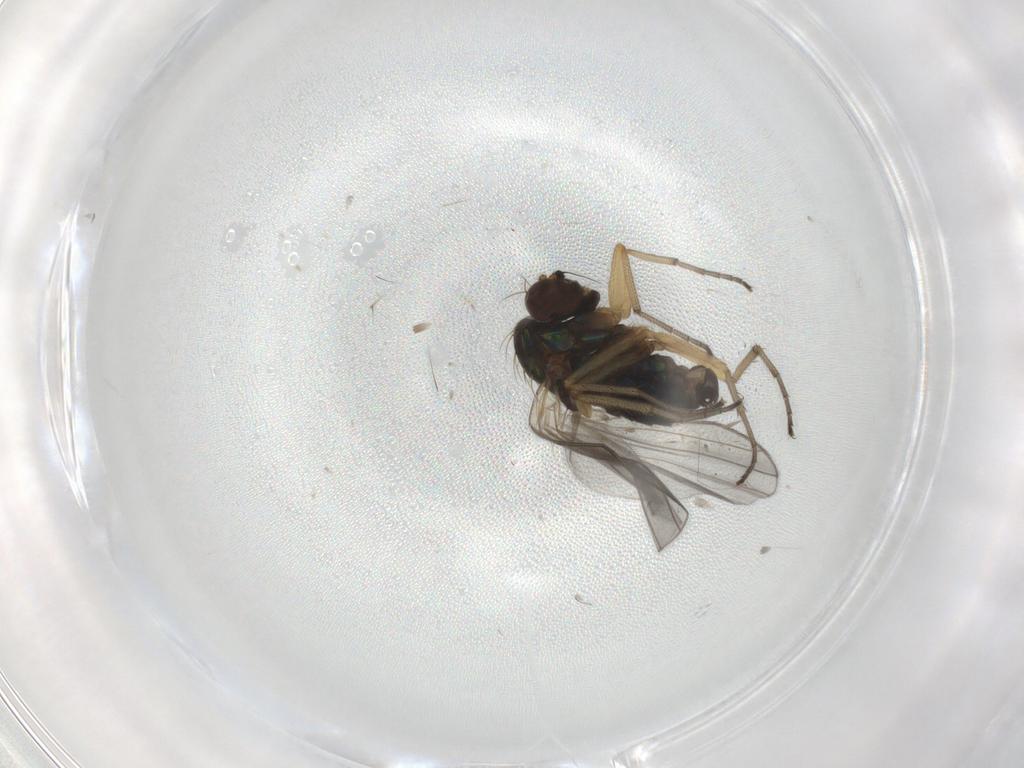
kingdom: Animalia
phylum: Arthropoda
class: Insecta
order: Diptera
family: Dolichopodidae
